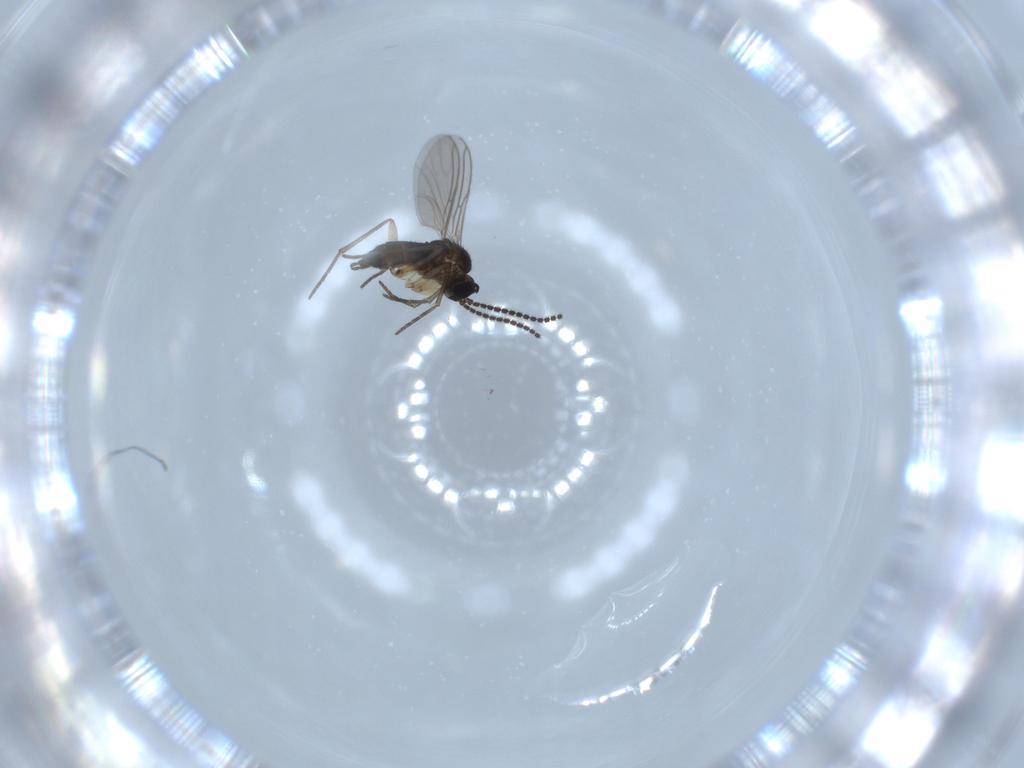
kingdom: Animalia
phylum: Arthropoda
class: Insecta
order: Diptera
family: Sciaridae
